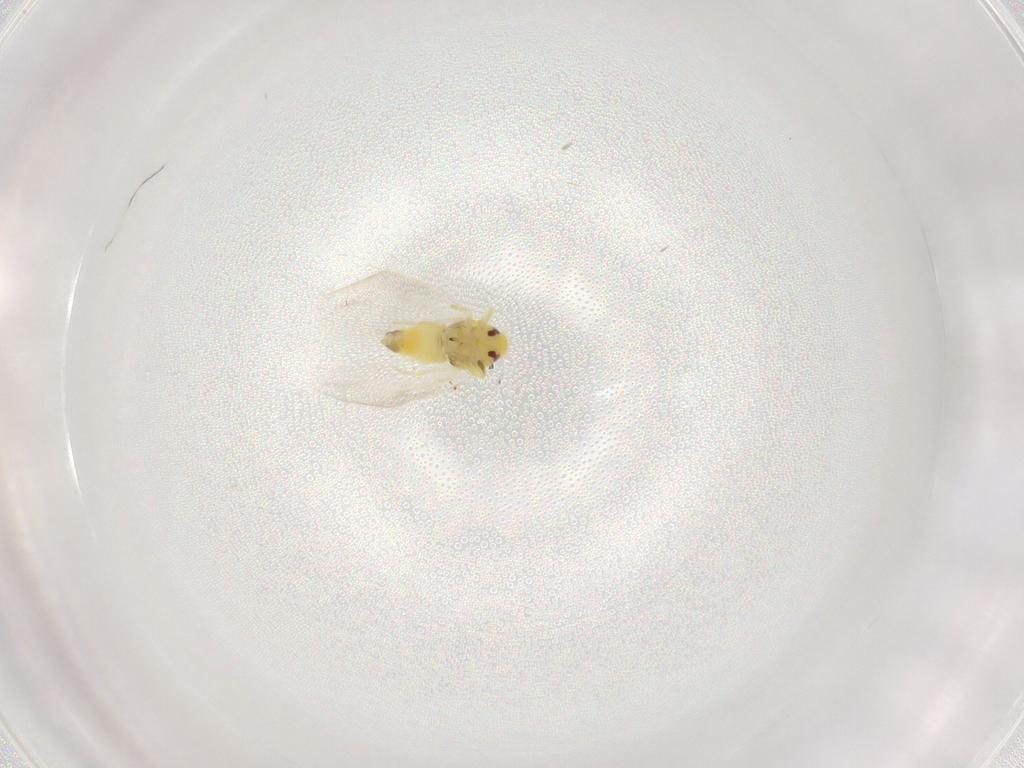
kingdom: Animalia
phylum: Arthropoda
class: Insecta
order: Hemiptera
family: Aleyrodidae
